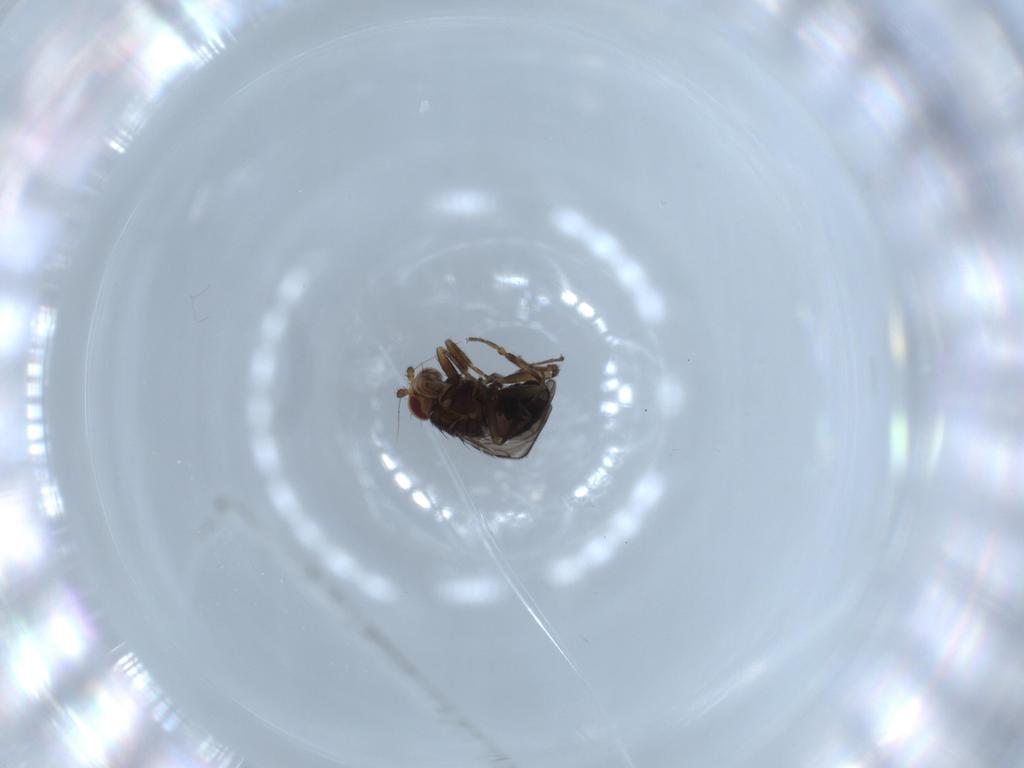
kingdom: Animalia
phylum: Arthropoda
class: Insecta
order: Diptera
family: Sphaeroceridae
